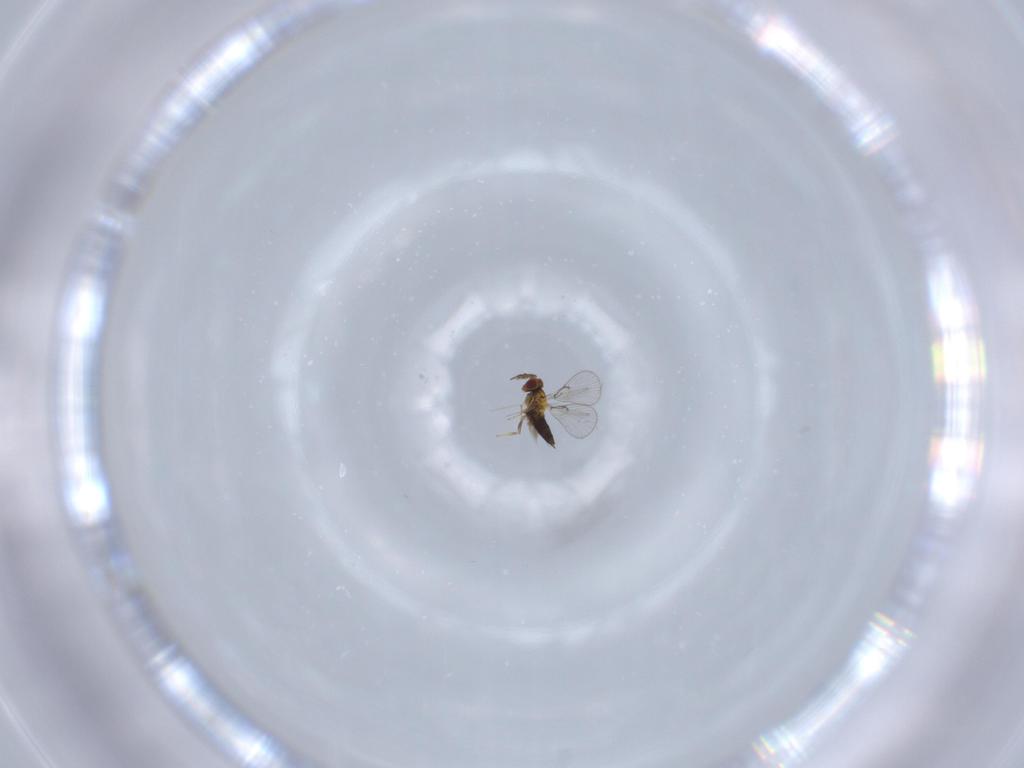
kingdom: Animalia
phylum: Arthropoda
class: Insecta
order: Hymenoptera
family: Trichogrammatidae
